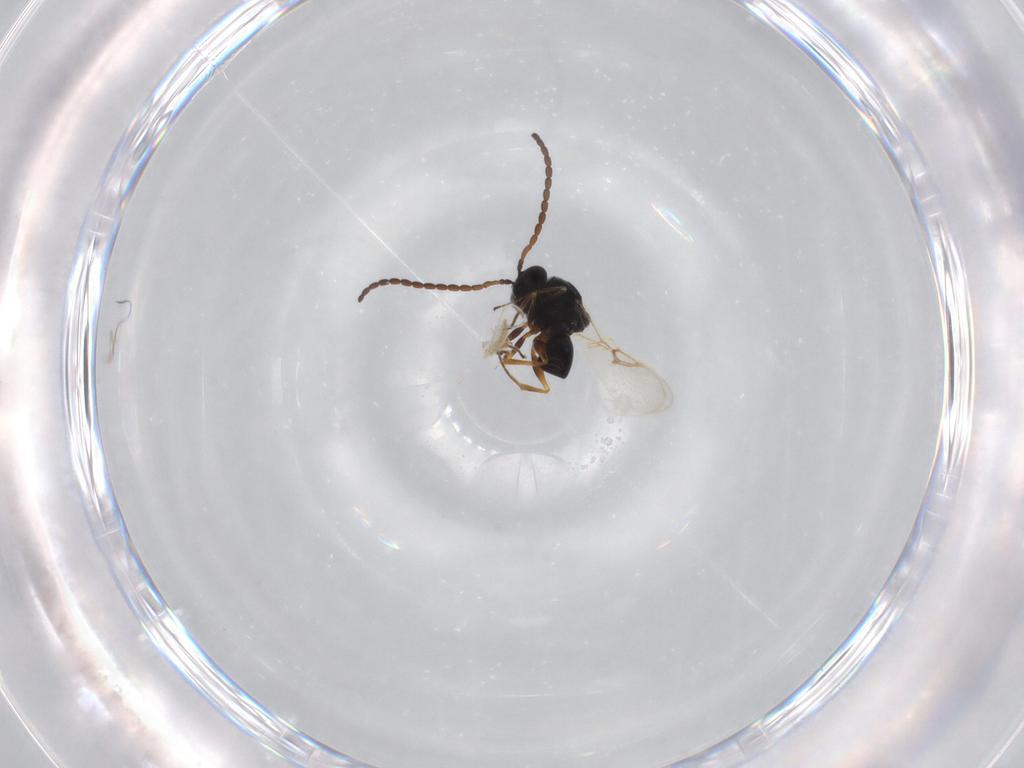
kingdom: Animalia
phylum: Arthropoda
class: Insecta
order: Hymenoptera
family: Figitidae
